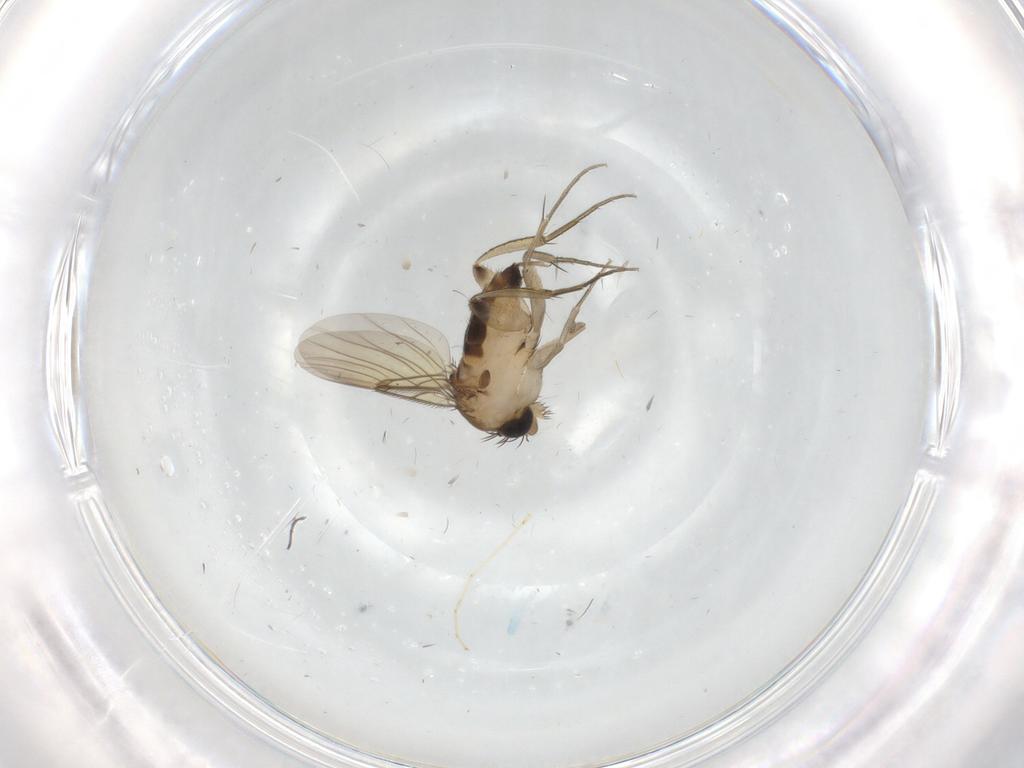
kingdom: Animalia
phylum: Arthropoda
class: Insecta
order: Diptera
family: Phoridae
